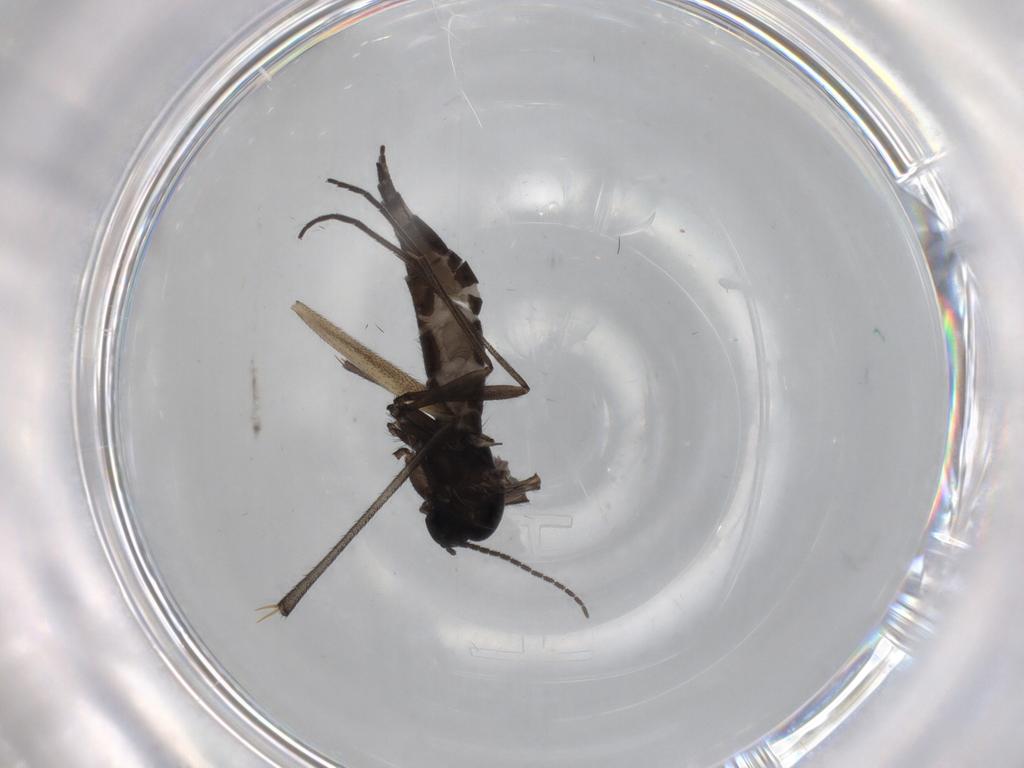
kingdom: Animalia
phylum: Arthropoda
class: Insecta
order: Diptera
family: Sciaridae
